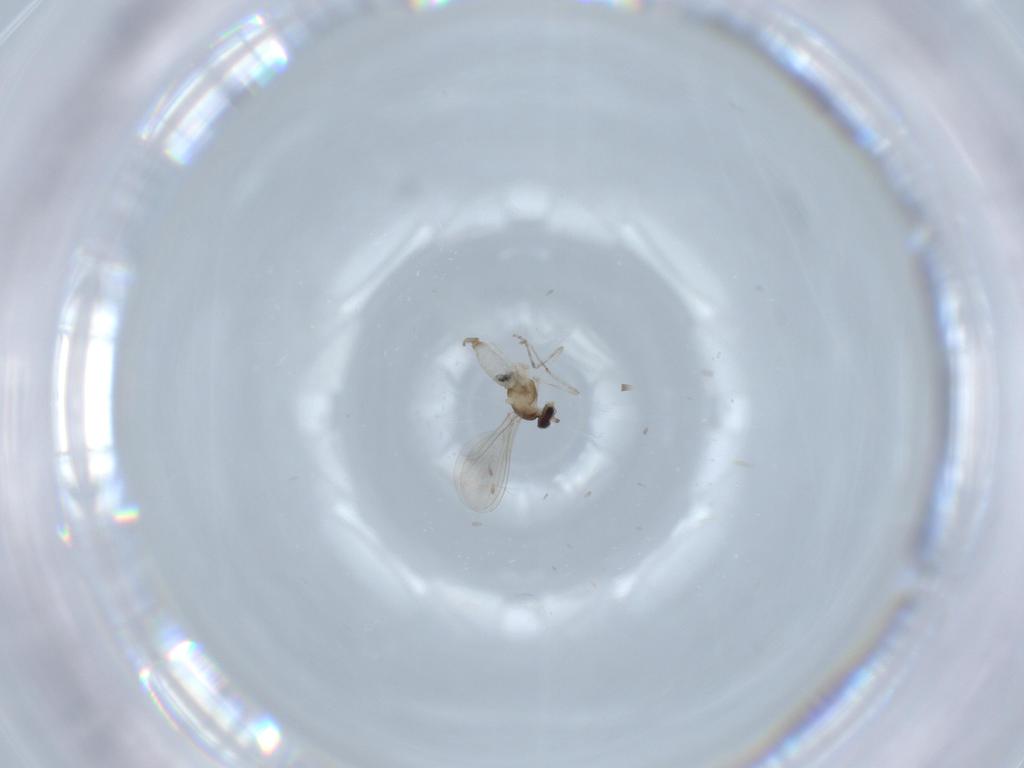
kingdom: Animalia
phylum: Arthropoda
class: Insecta
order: Diptera
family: Cecidomyiidae
